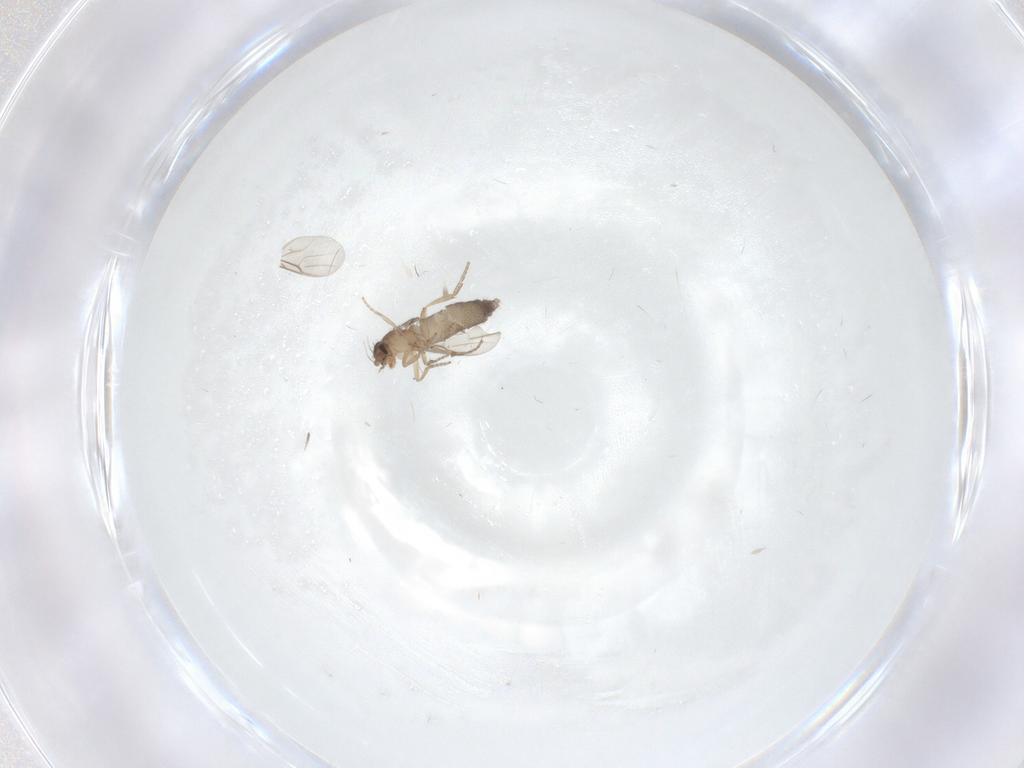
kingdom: Animalia
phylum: Arthropoda
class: Insecta
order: Diptera
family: Phoridae
